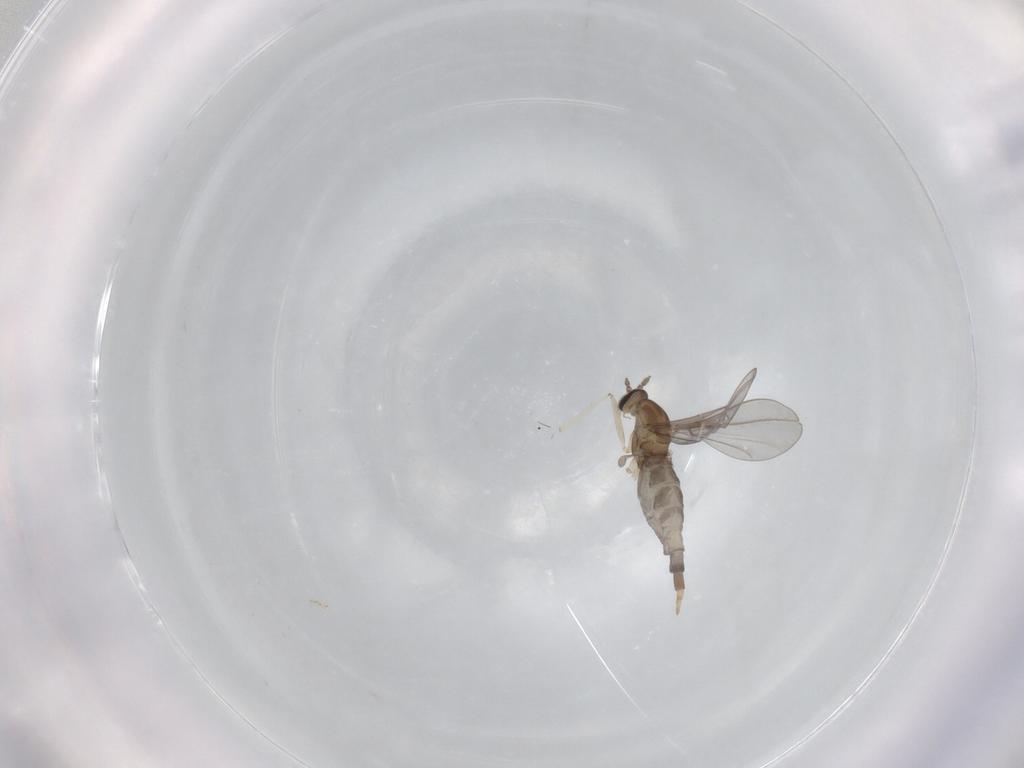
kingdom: Animalia
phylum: Arthropoda
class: Insecta
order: Diptera
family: Cecidomyiidae
